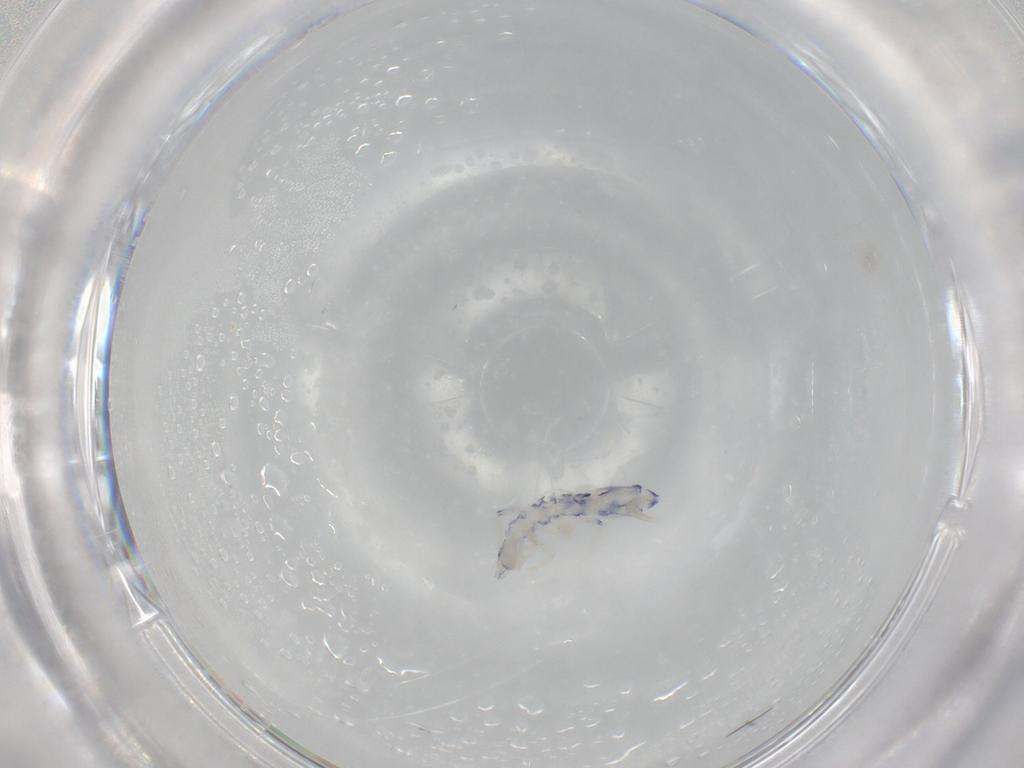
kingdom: Animalia
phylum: Arthropoda
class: Collembola
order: Entomobryomorpha
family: Entomobryidae
